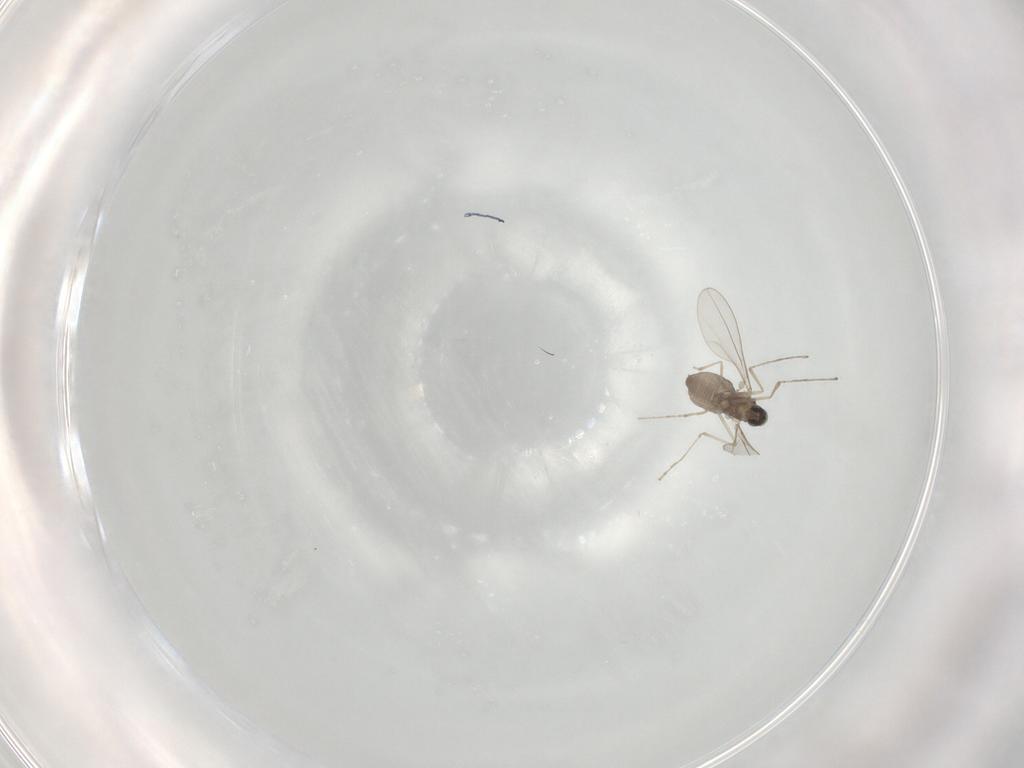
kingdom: Animalia
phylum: Arthropoda
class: Insecta
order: Diptera
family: Cecidomyiidae
